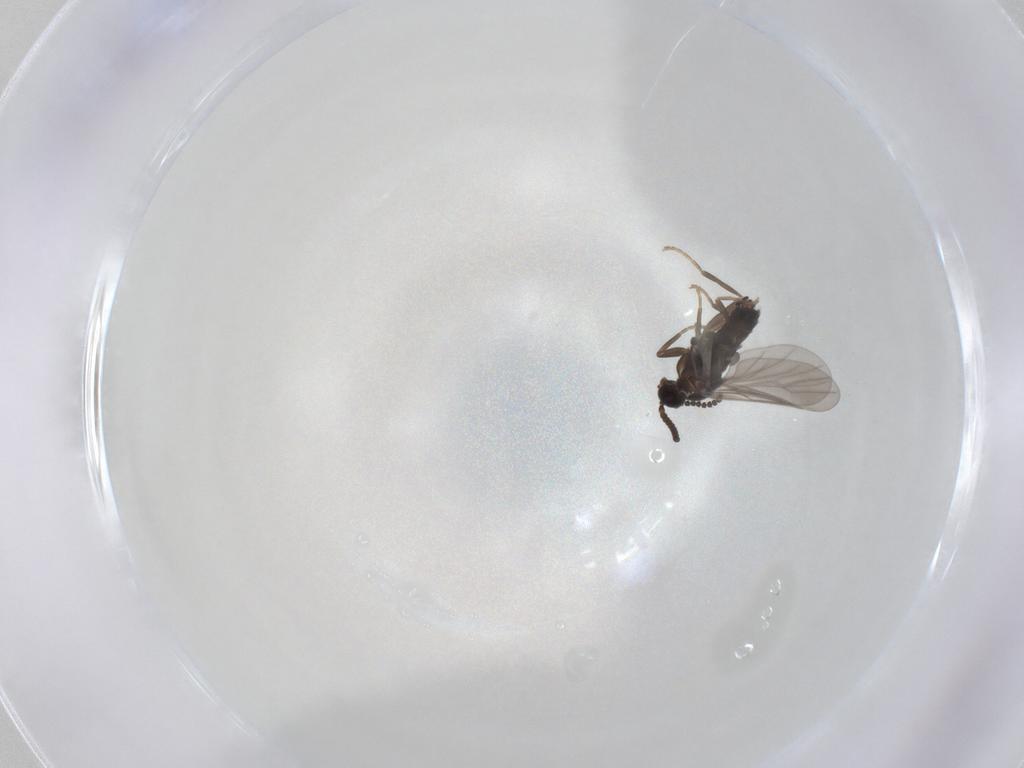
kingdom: Animalia
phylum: Arthropoda
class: Insecta
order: Diptera
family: Scatopsidae
